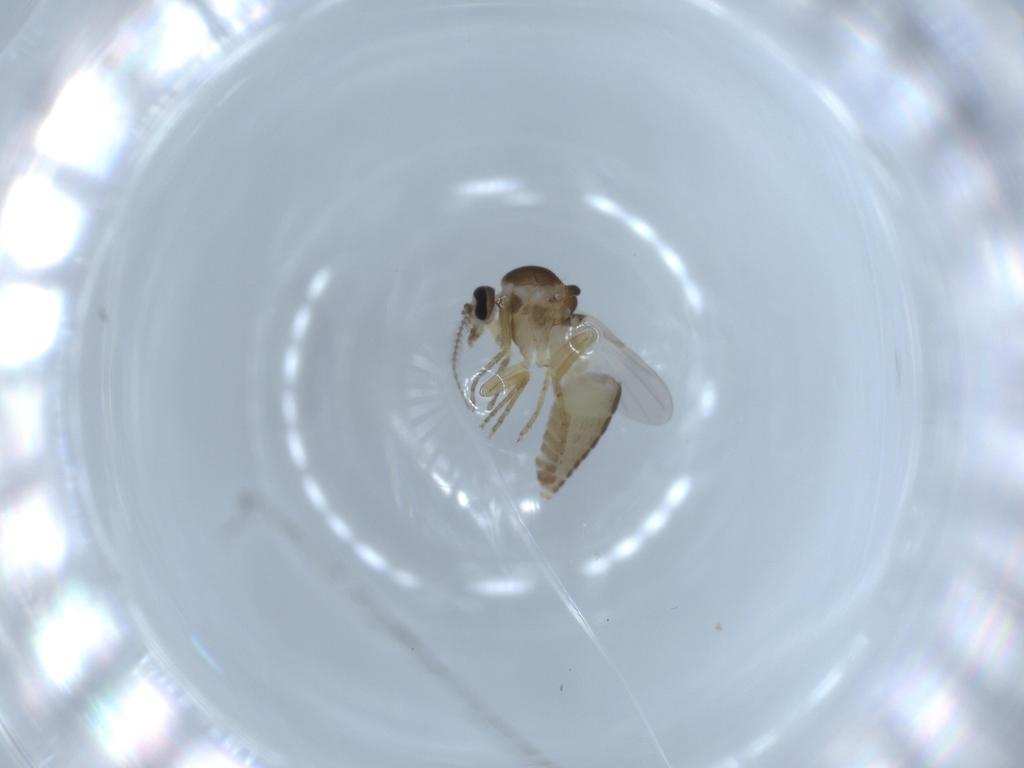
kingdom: Animalia
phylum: Arthropoda
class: Insecta
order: Diptera
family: Ceratopogonidae
